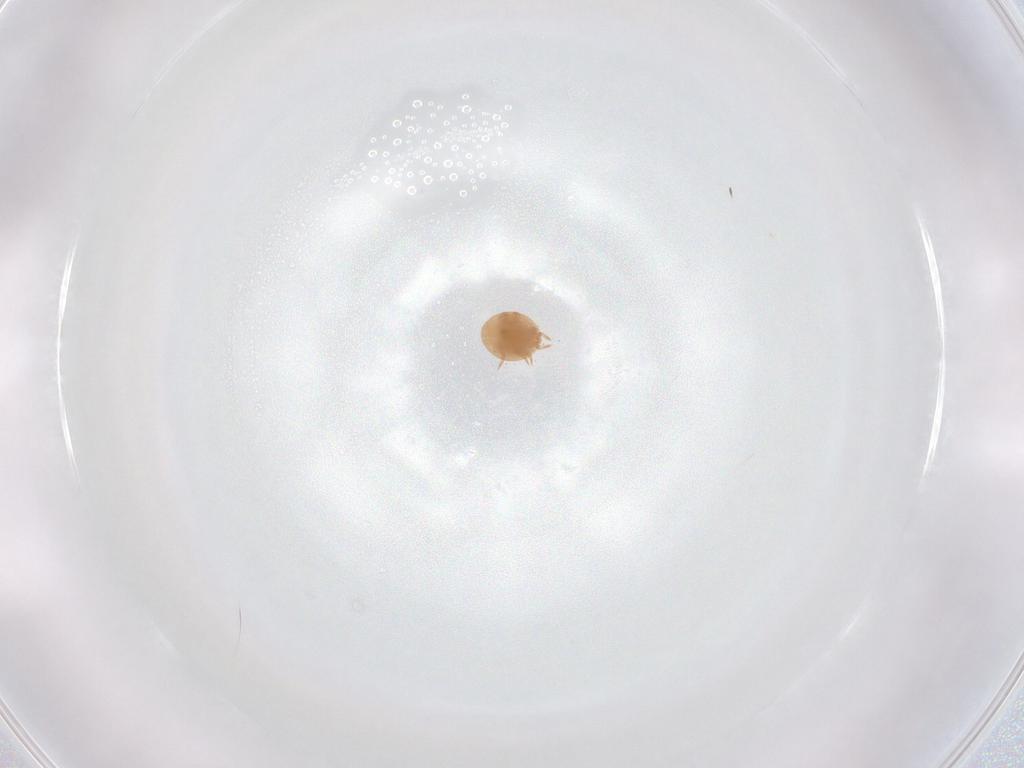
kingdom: Animalia
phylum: Arthropoda
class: Arachnida
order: Mesostigmata
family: Trematuridae
